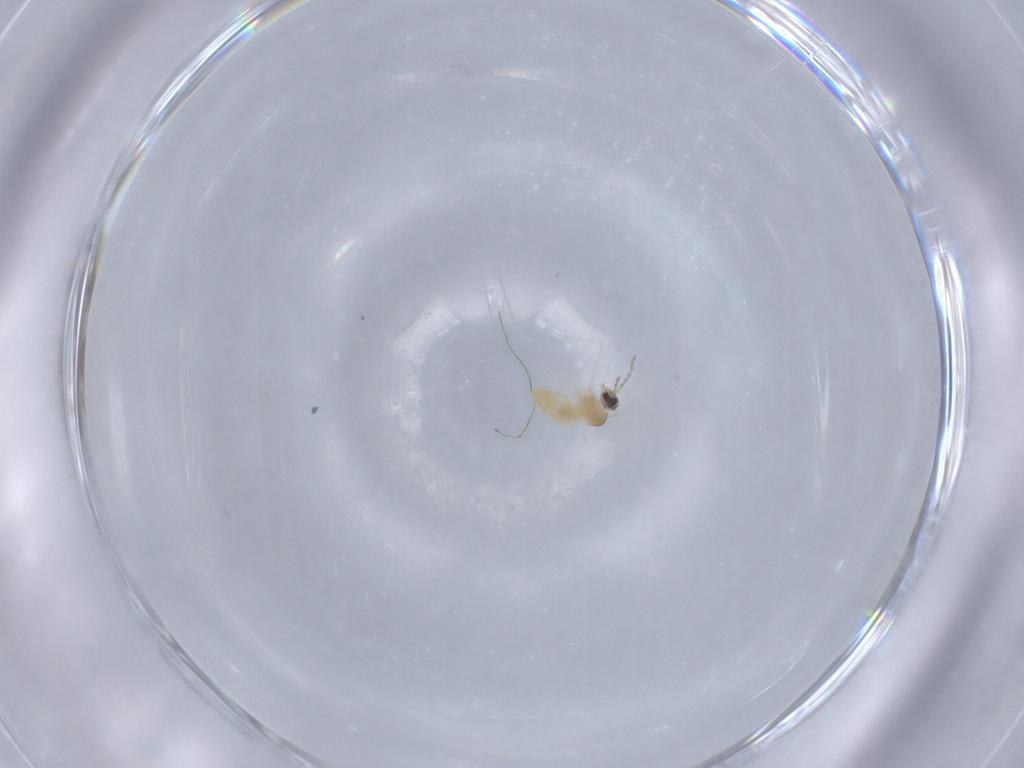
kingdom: Animalia
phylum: Arthropoda
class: Insecta
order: Diptera
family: Cecidomyiidae
